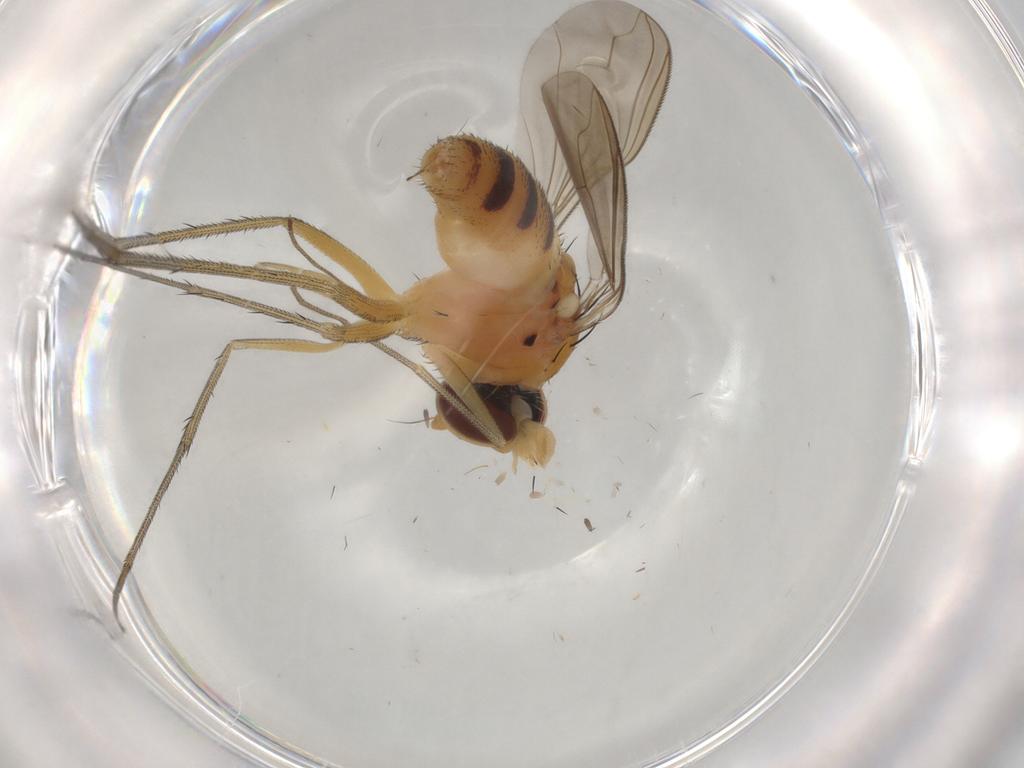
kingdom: Animalia
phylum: Arthropoda
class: Insecta
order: Diptera
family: Dolichopodidae
